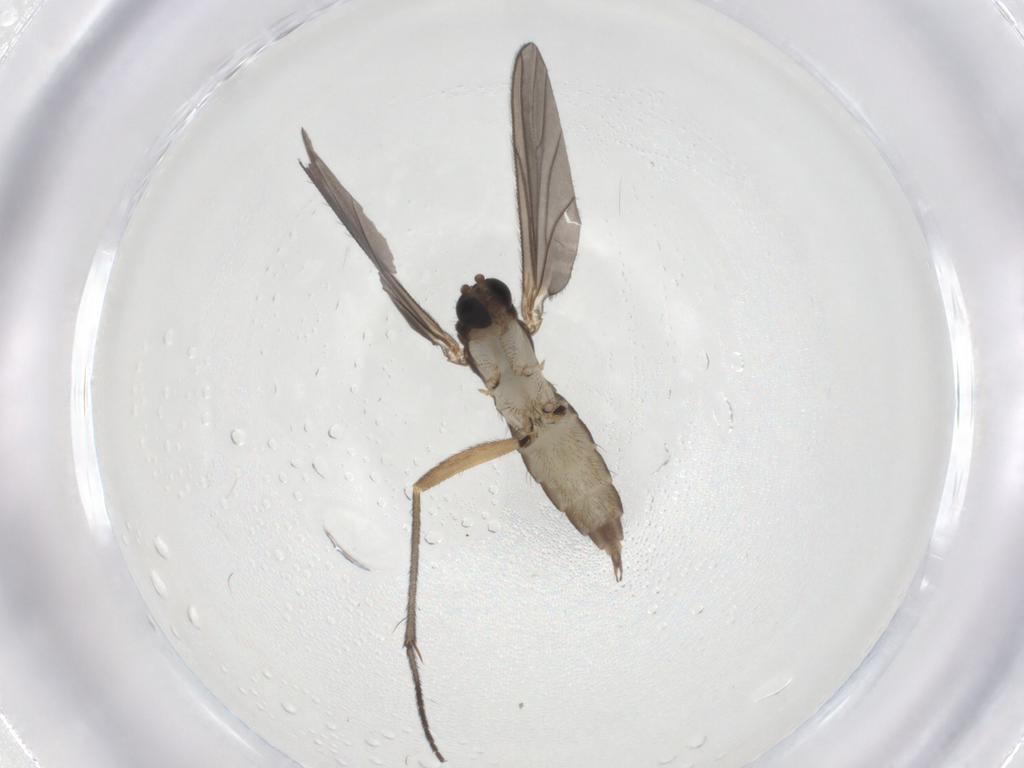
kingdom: Animalia
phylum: Arthropoda
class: Insecta
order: Diptera
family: Sciaridae
